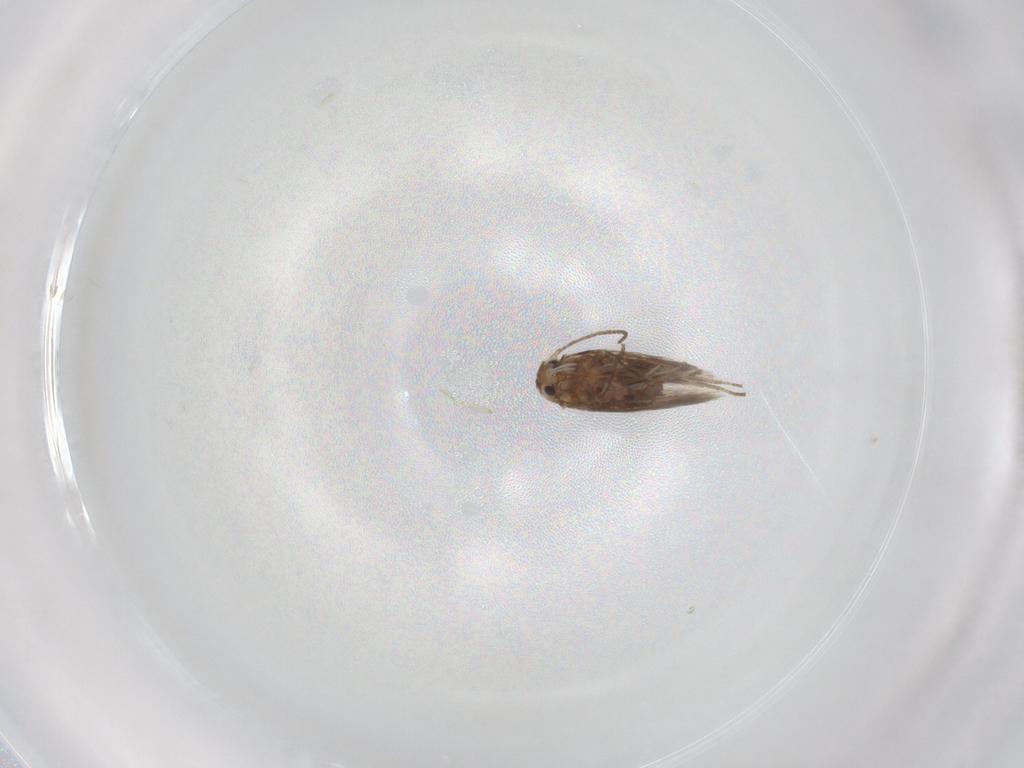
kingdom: Animalia
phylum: Arthropoda
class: Insecta
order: Lepidoptera
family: Nymphalidae
